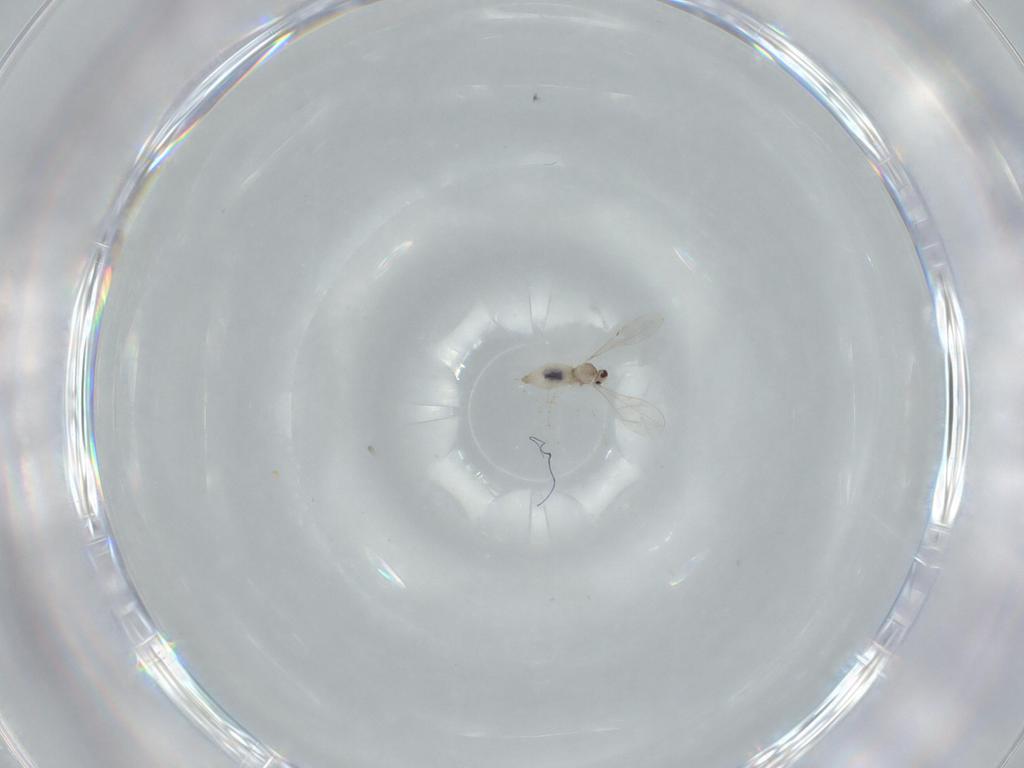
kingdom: Animalia
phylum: Arthropoda
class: Insecta
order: Diptera
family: Cecidomyiidae
